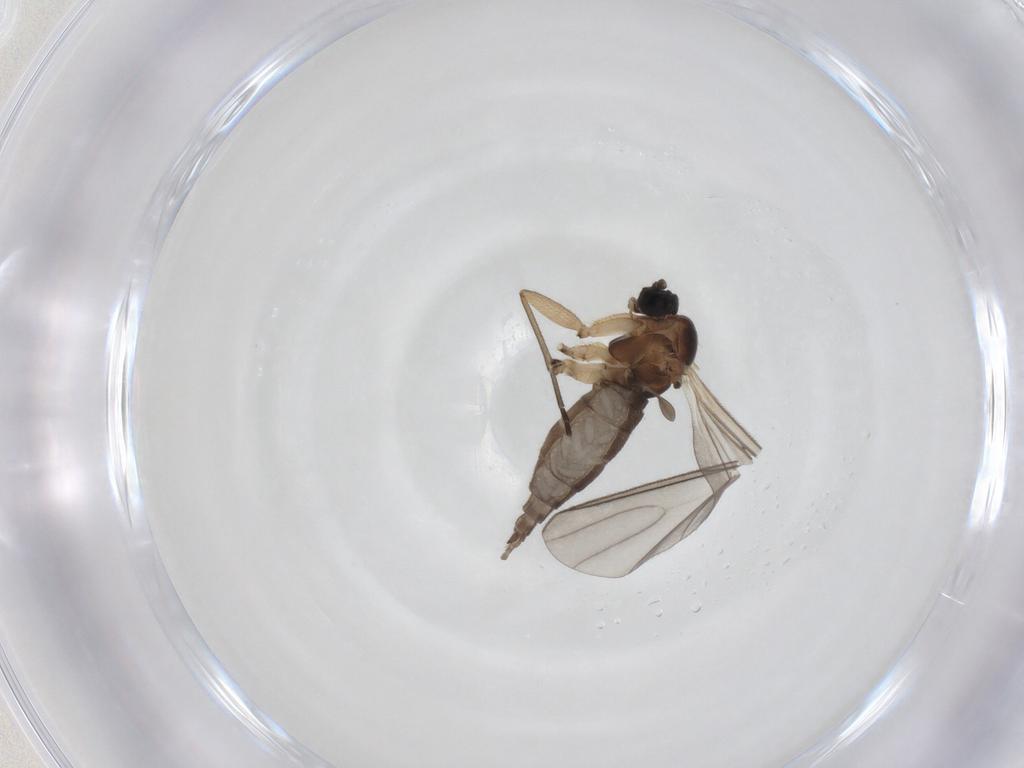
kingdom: Animalia
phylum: Arthropoda
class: Insecta
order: Diptera
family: Sciaridae
